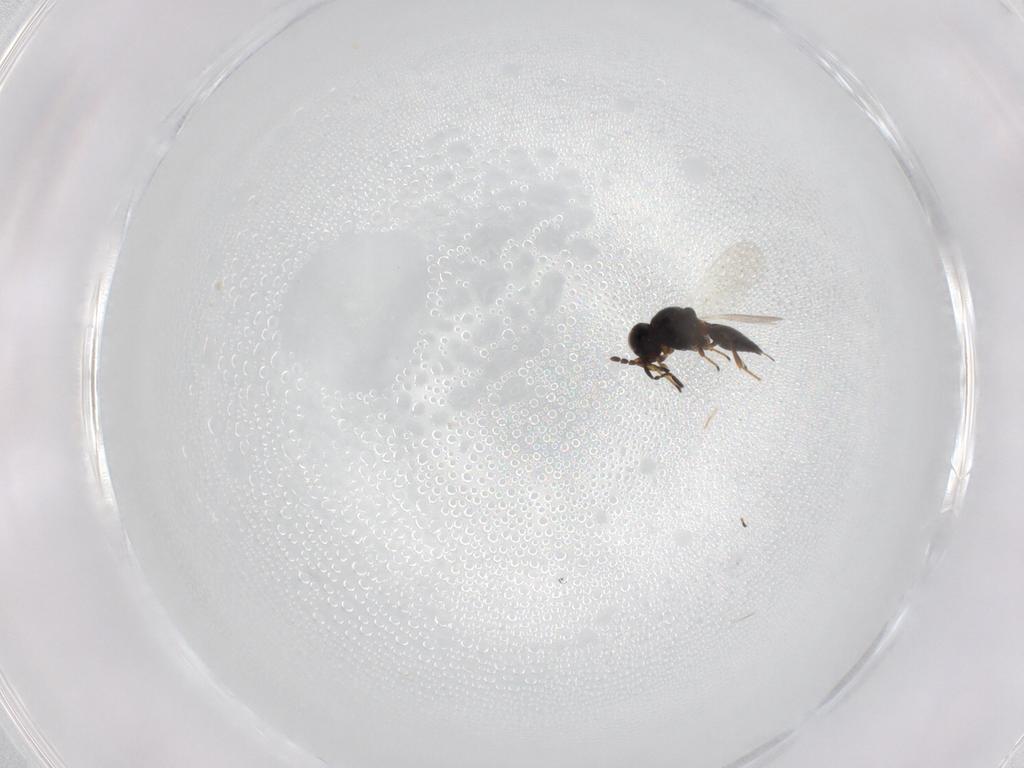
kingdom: Animalia
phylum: Arthropoda
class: Insecta
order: Hymenoptera
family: Platygastridae
